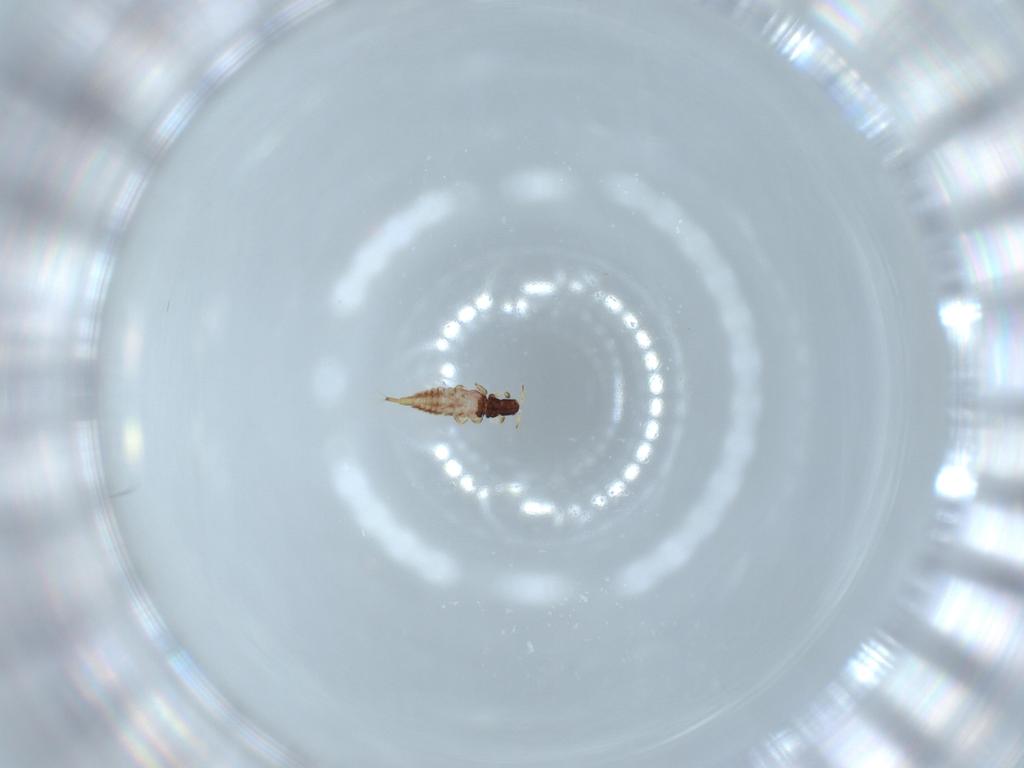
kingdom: Animalia
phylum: Arthropoda
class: Insecta
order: Thysanoptera
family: Phlaeothripidae
